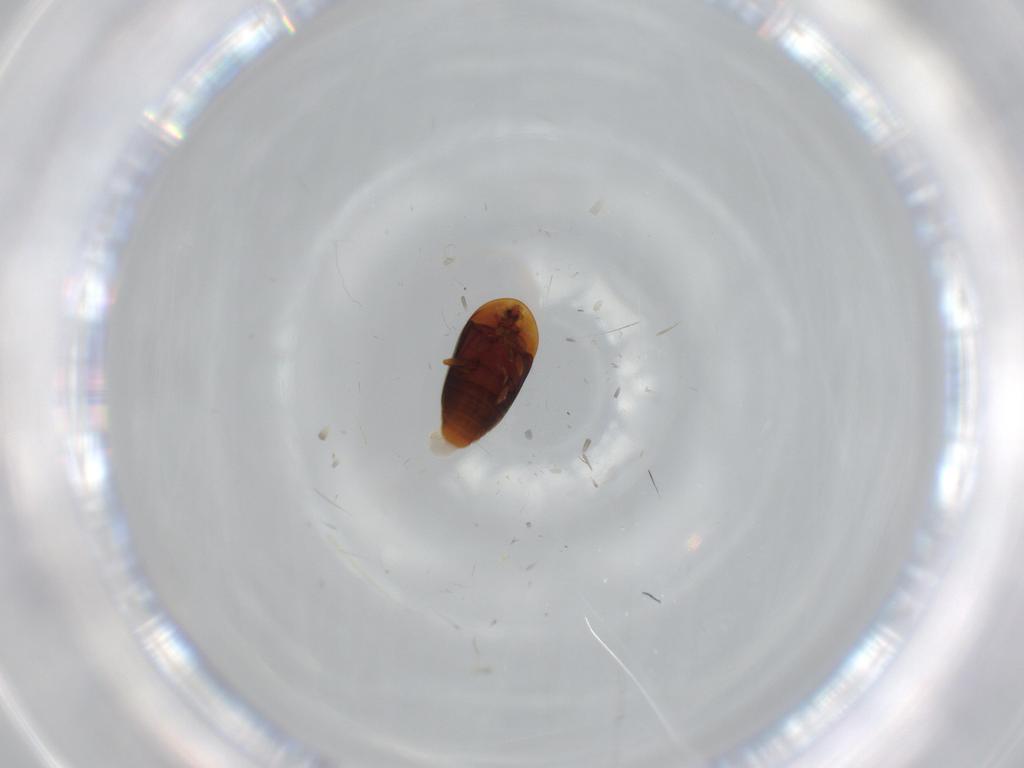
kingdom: Animalia
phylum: Arthropoda
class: Insecta
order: Coleoptera
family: Corylophidae
